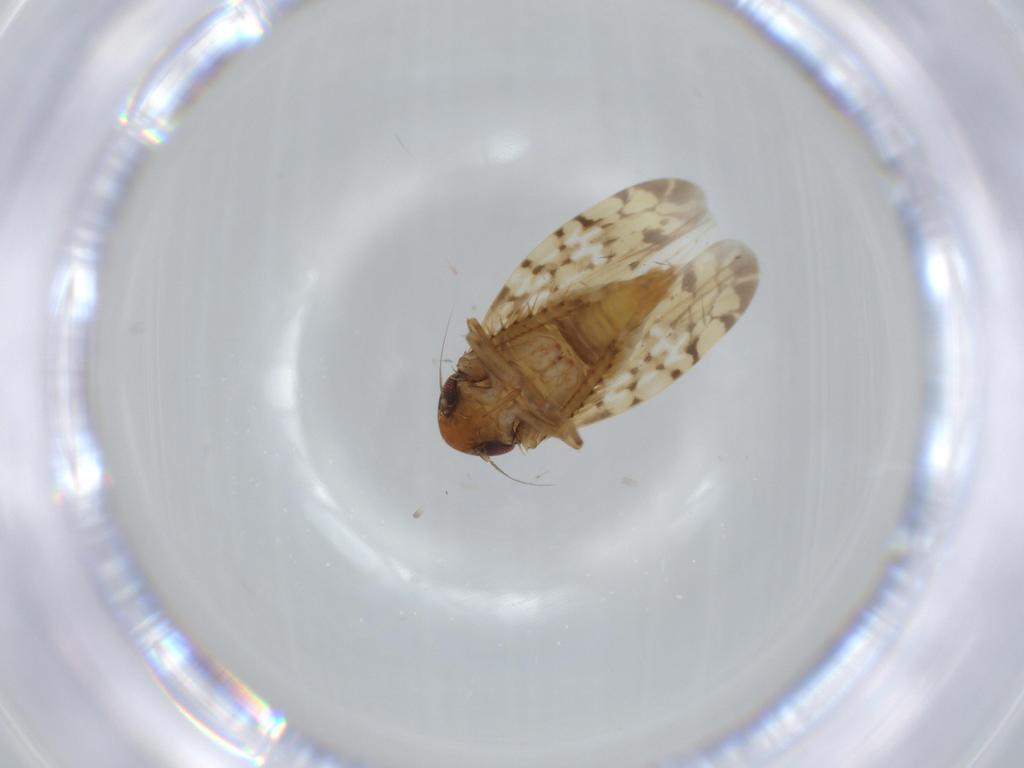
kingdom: Animalia
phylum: Arthropoda
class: Insecta
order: Hemiptera
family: Cicadellidae
